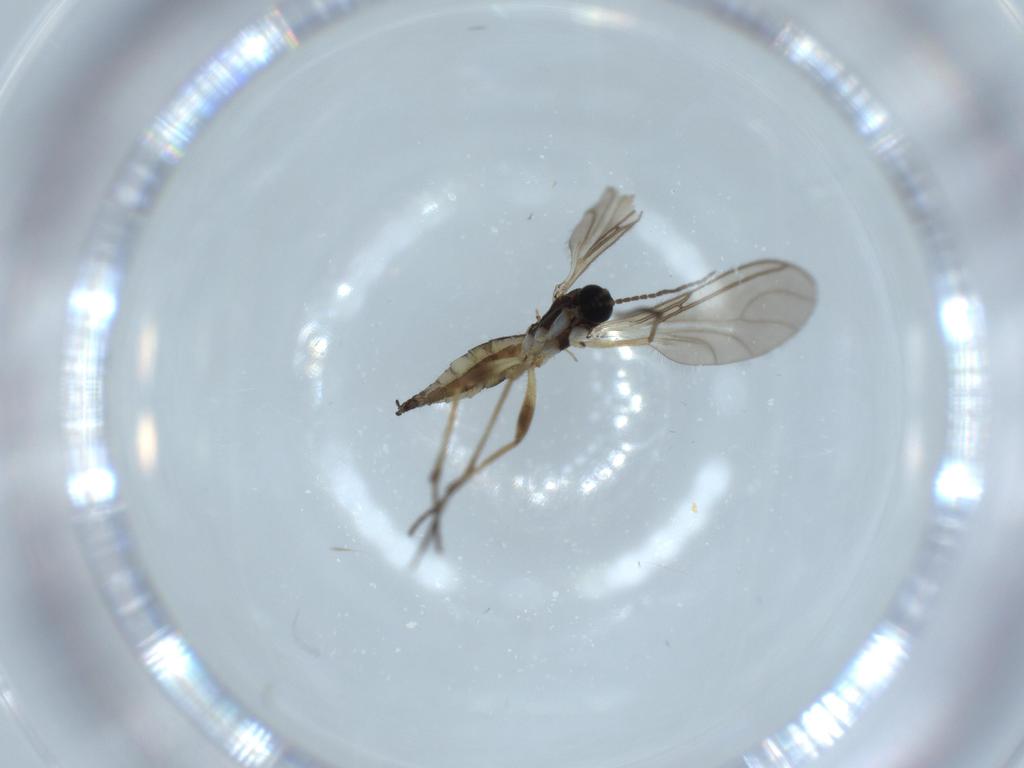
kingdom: Animalia
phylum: Arthropoda
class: Insecta
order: Diptera
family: Sciaridae
